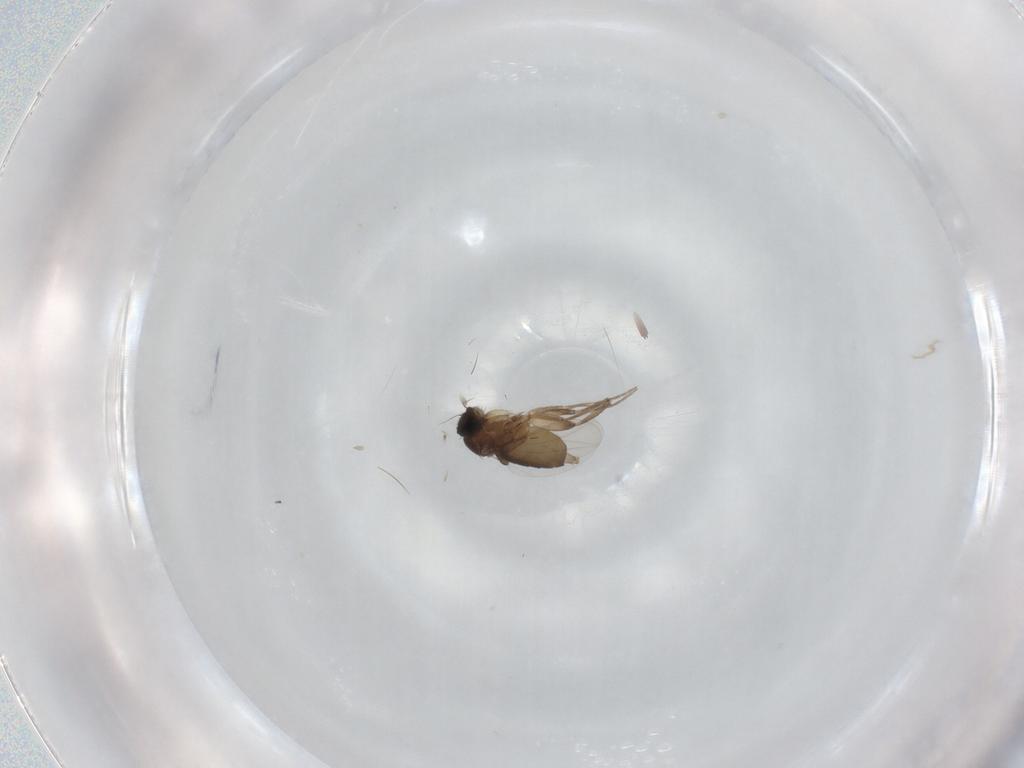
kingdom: Animalia
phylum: Arthropoda
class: Insecta
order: Diptera
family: Phoridae
